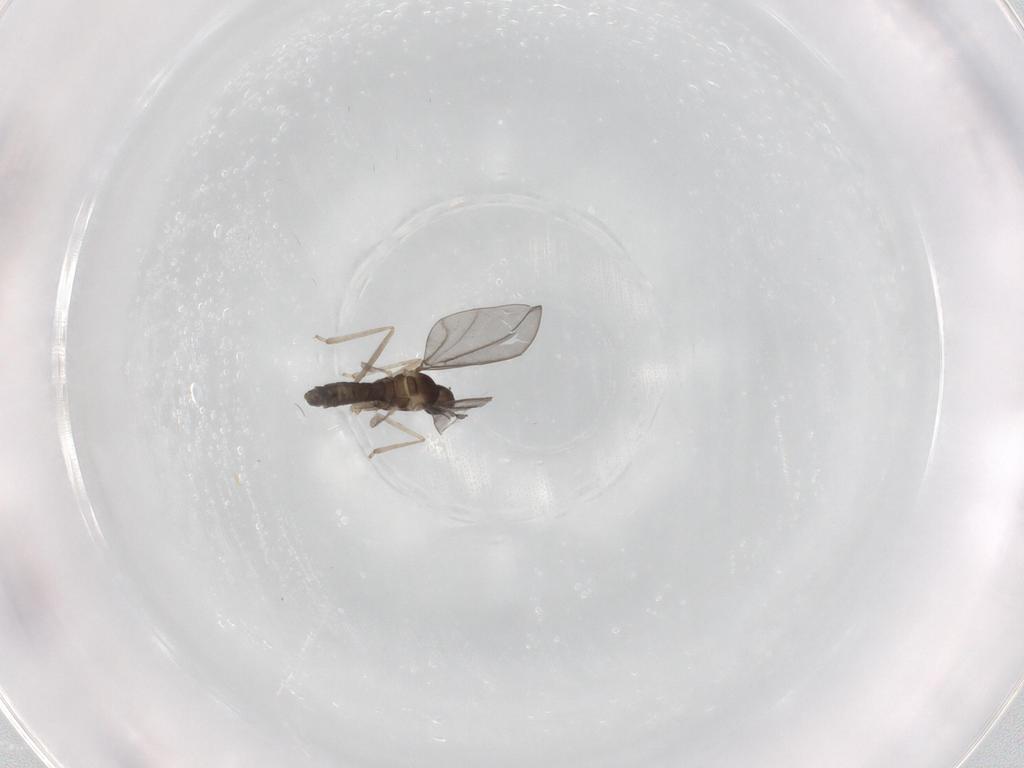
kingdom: Animalia
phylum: Arthropoda
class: Insecta
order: Diptera
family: Cecidomyiidae
